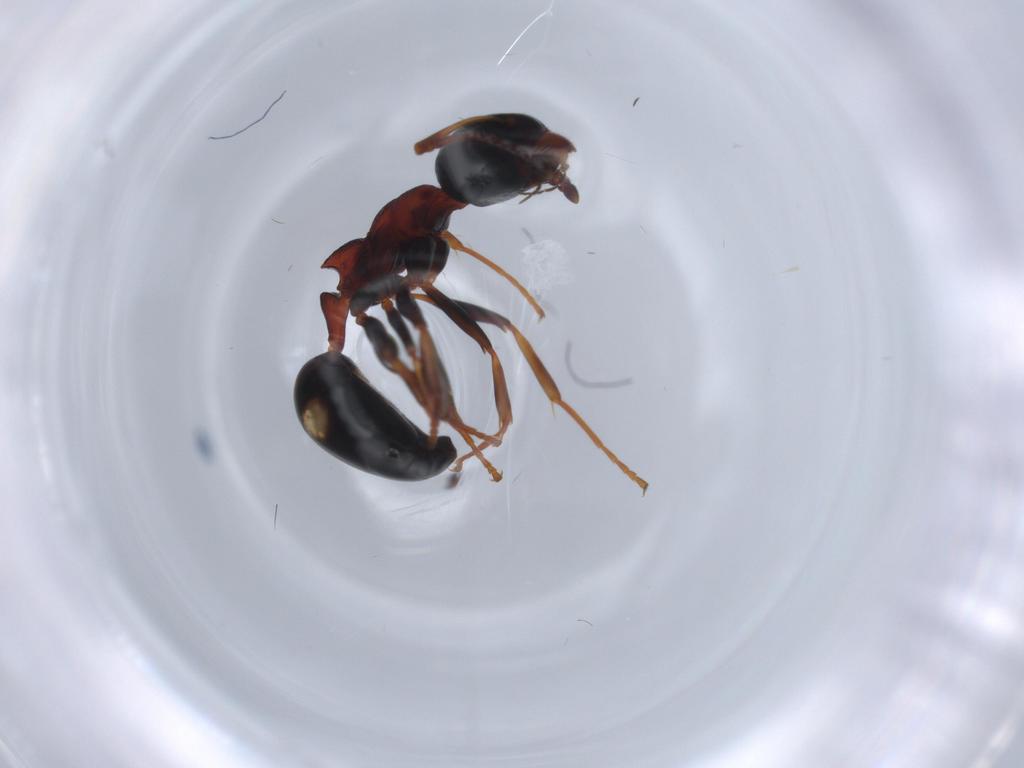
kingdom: Animalia
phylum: Arthropoda
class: Insecta
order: Hymenoptera
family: Formicidae
